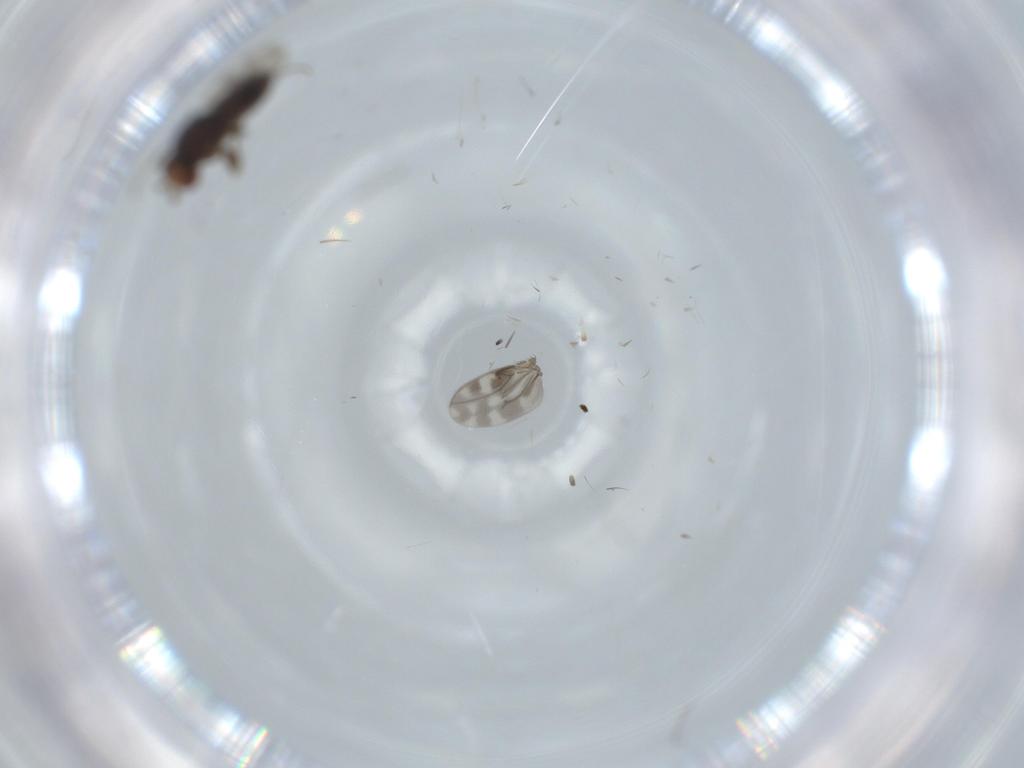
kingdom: Animalia
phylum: Arthropoda
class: Insecta
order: Diptera
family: Sphaeroceridae
